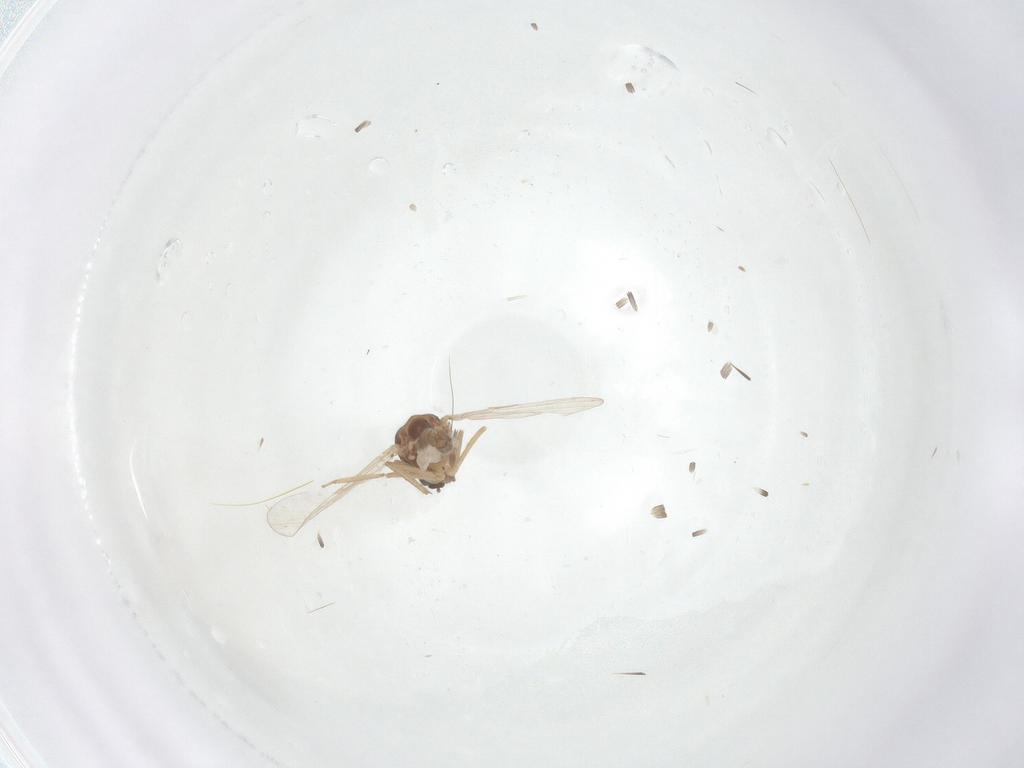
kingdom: Animalia
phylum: Arthropoda
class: Insecta
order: Diptera
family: Ceratopogonidae
